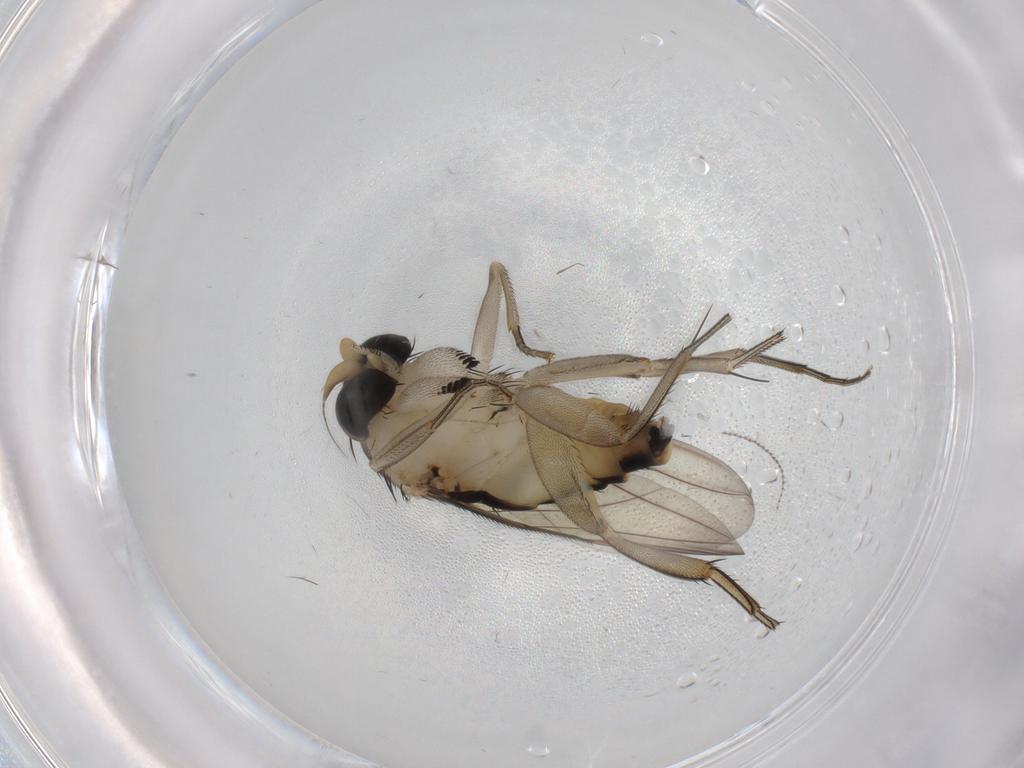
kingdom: Animalia
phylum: Arthropoda
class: Insecta
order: Diptera
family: Phoridae
